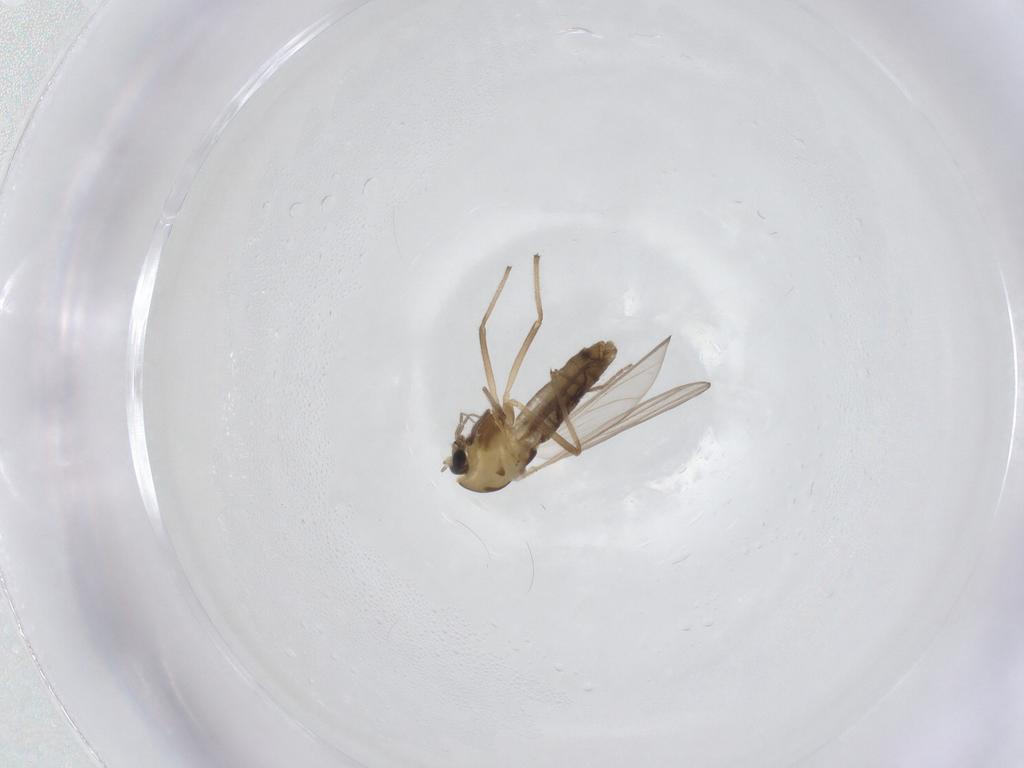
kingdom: Animalia
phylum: Arthropoda
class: Insecta
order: Diptera
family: Chironomidae
